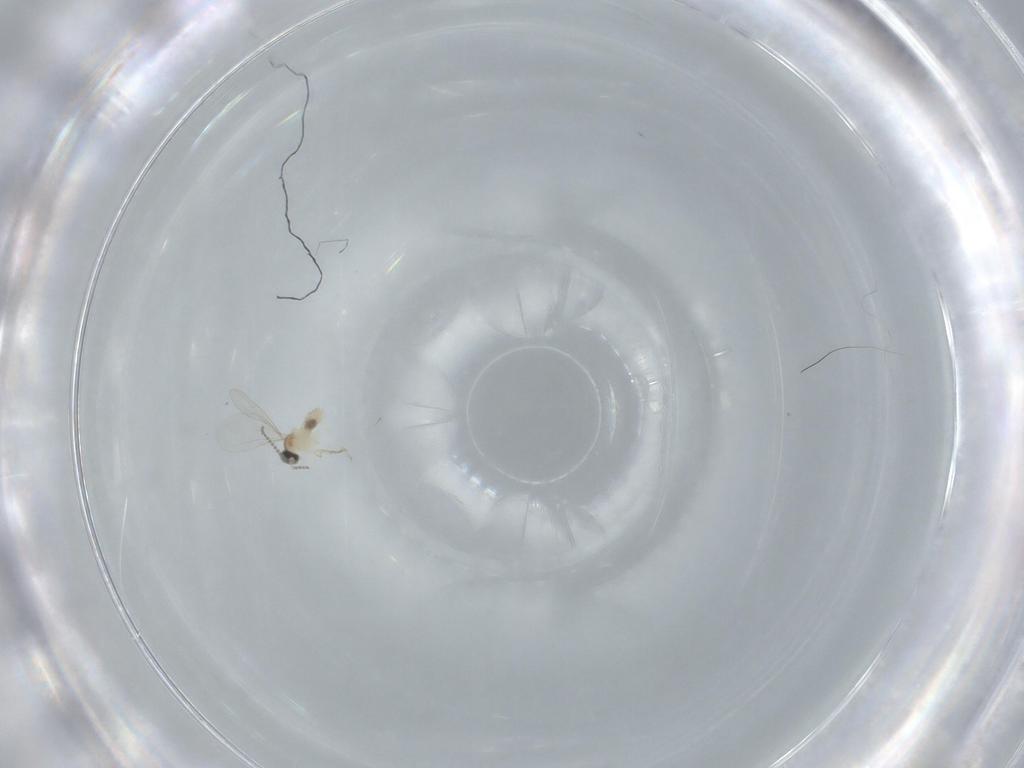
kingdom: Animalia
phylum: Arthropoda
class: Insecta
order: Diptera
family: Cecidomyiidae
